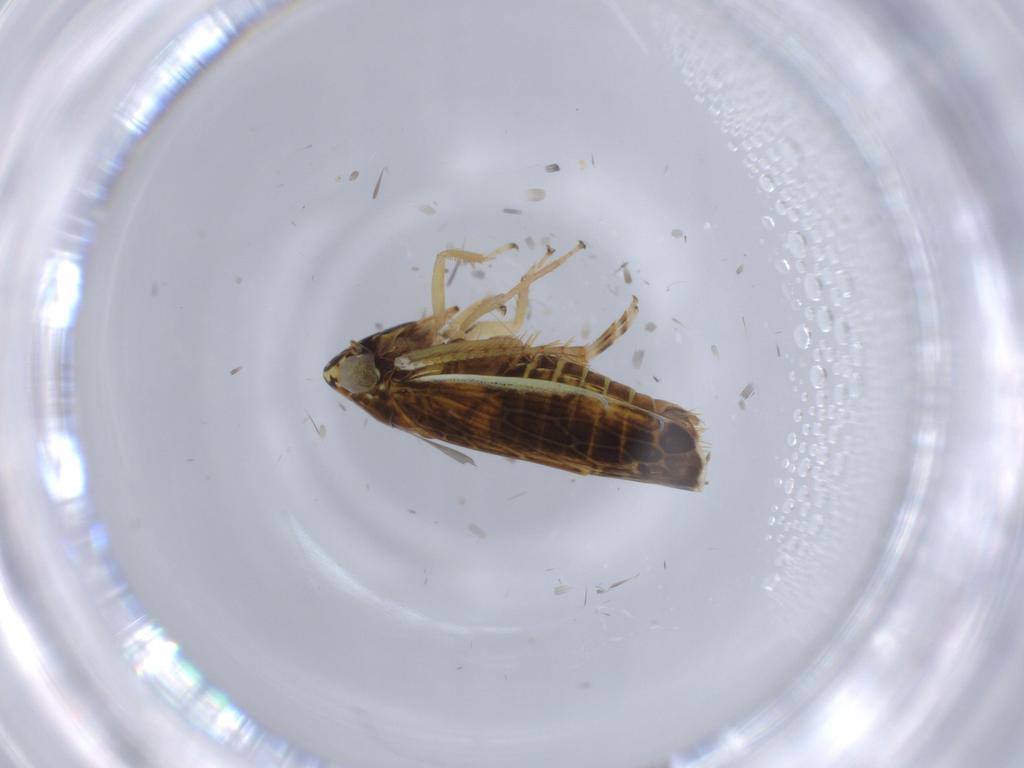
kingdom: Animalia
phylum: Arthropoda
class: Insecta
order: Hemiptera
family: Cicadellidae
